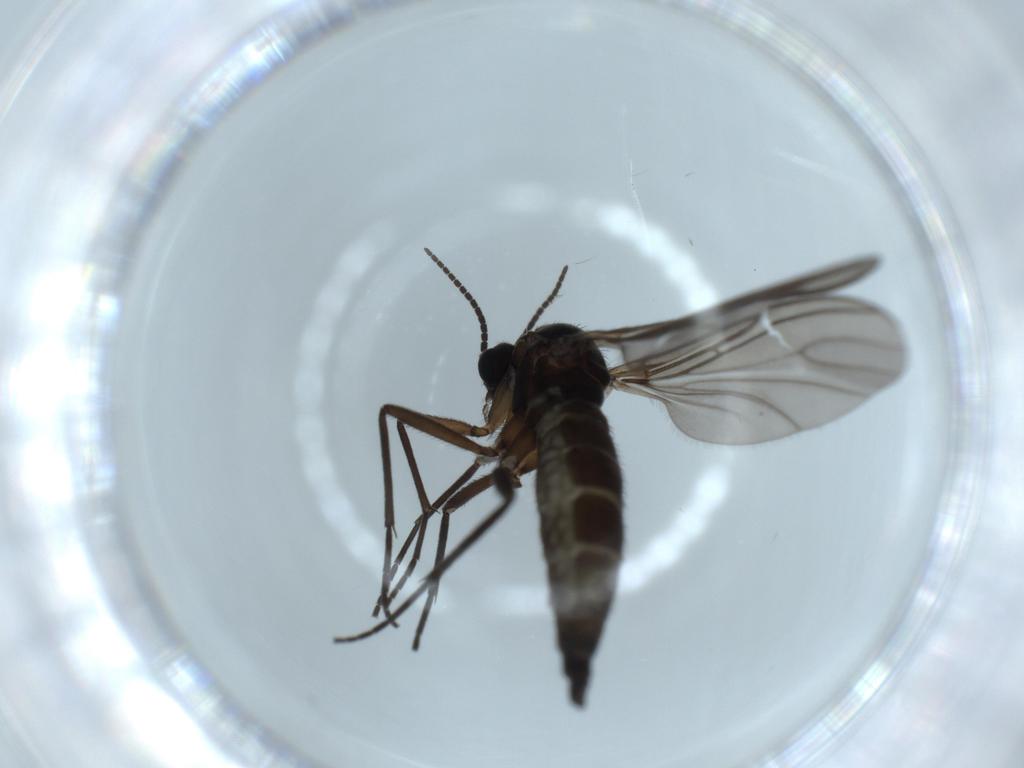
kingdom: Animalia
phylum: Arthropoda
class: Insecta
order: Diptera
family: Sciaridae
